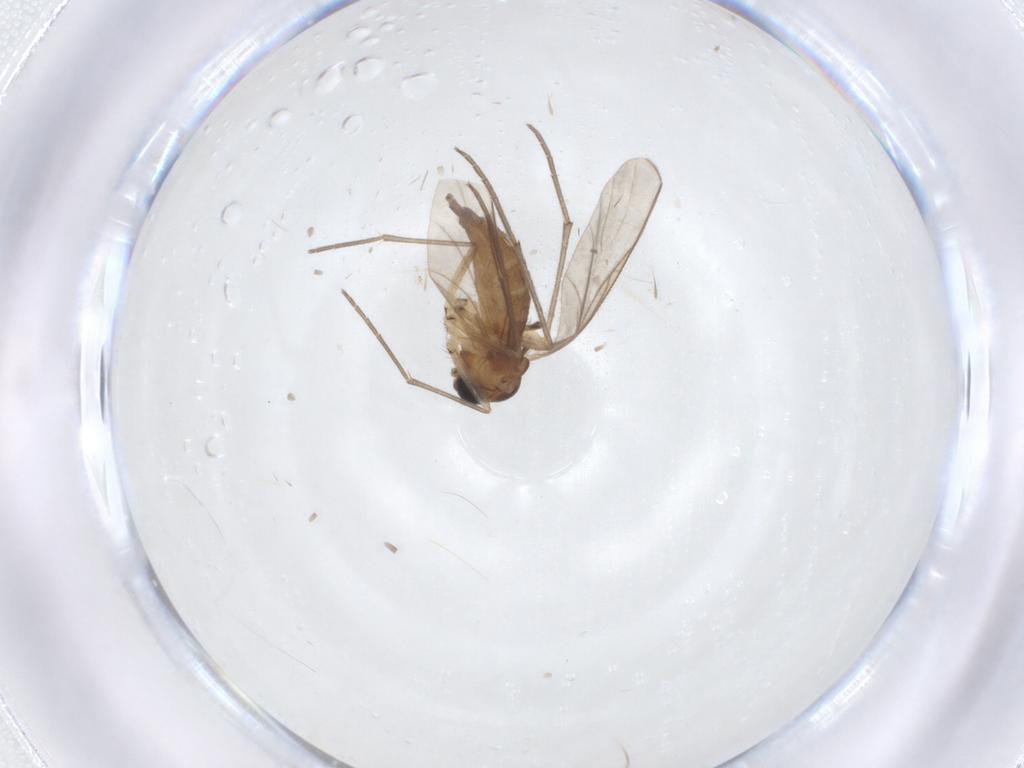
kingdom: Animalia
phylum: Arthropoda
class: Insecta
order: Diptera
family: Sciaridae
